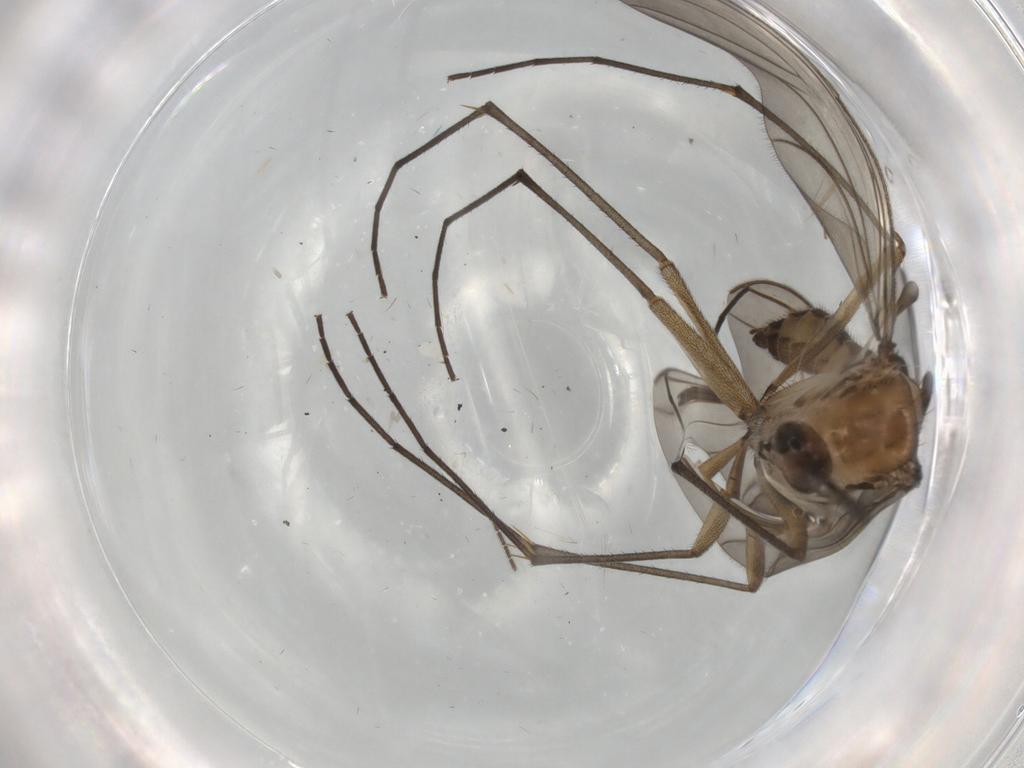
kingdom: Animalia
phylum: Arthropoda
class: Insecta
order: Diptera
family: Sciaridae
